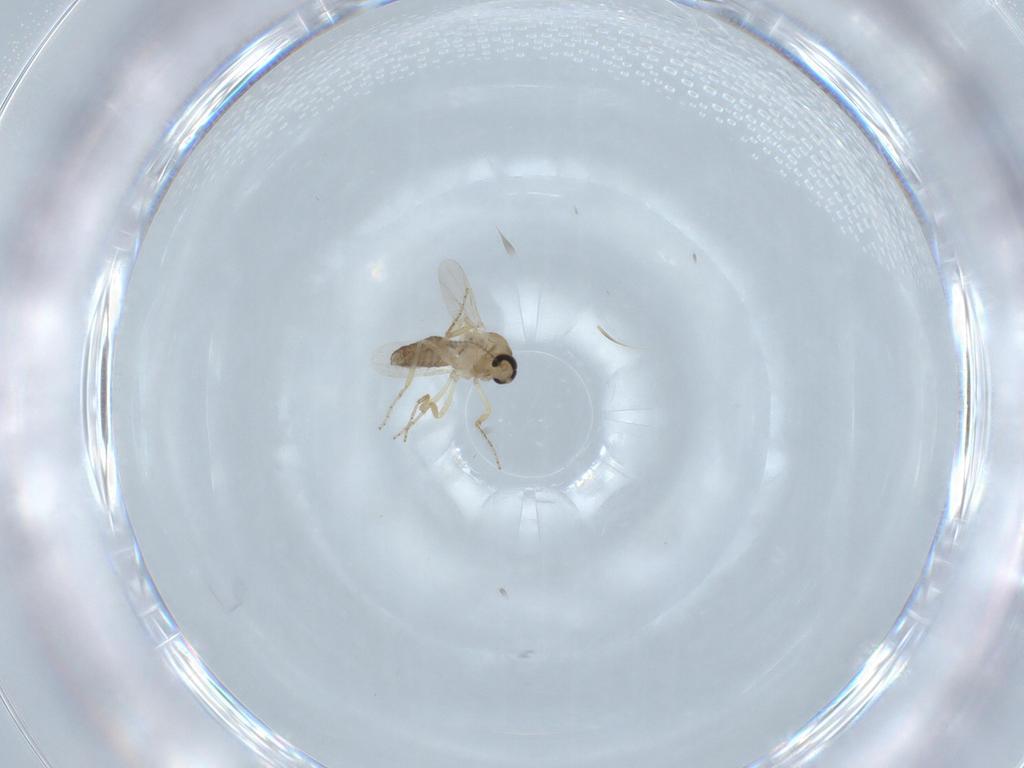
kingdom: Animalia
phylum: Arthropoda
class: Insecta
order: Diptera
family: Ceratopogonidae
